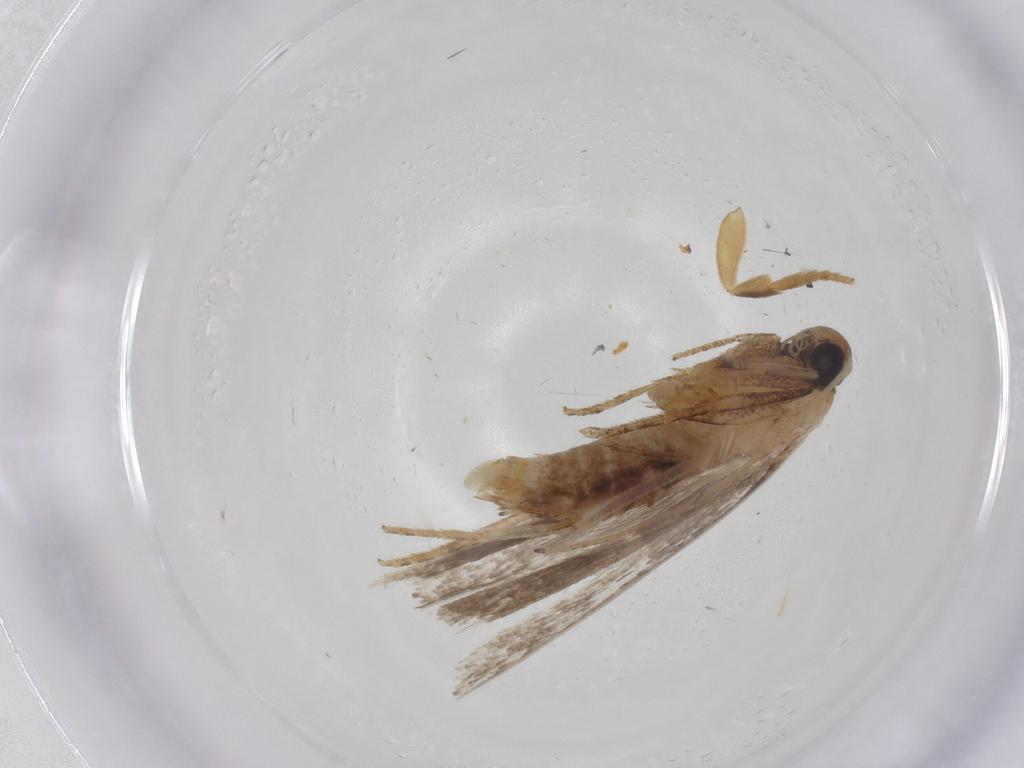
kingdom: Animalia
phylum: Arthropoda
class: Insecta
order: Lepidoptera
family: Gelechiidae
